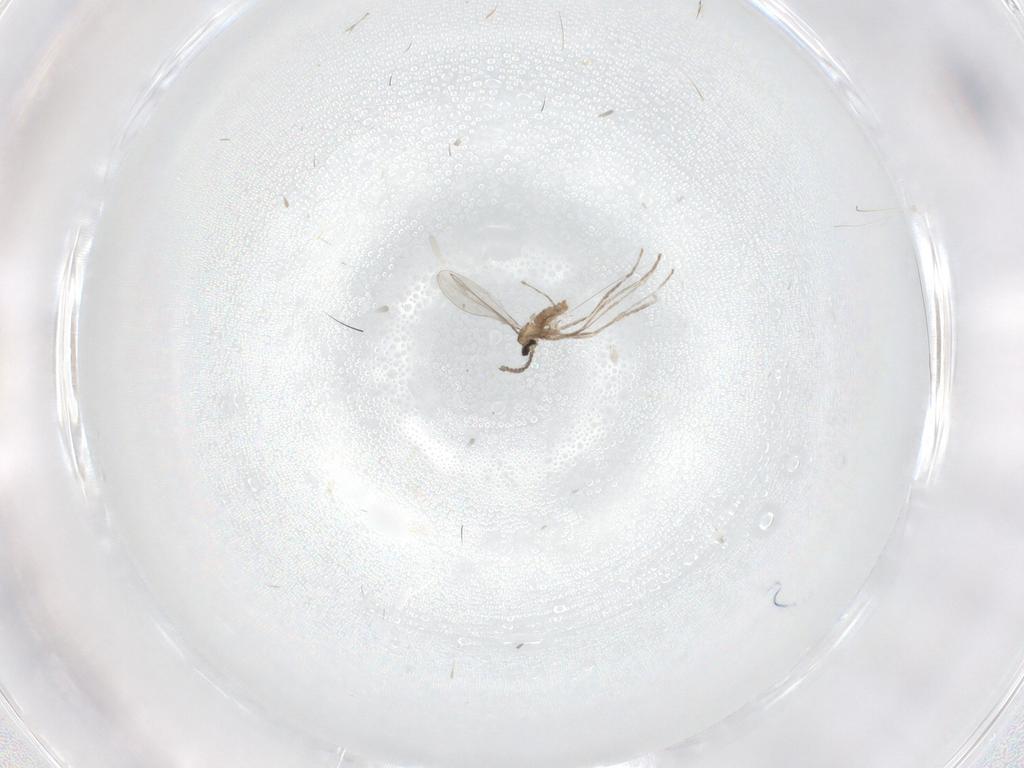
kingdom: Animalia
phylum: Arthropoda
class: Insecta
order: Diptera
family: Cecidomyiidae
